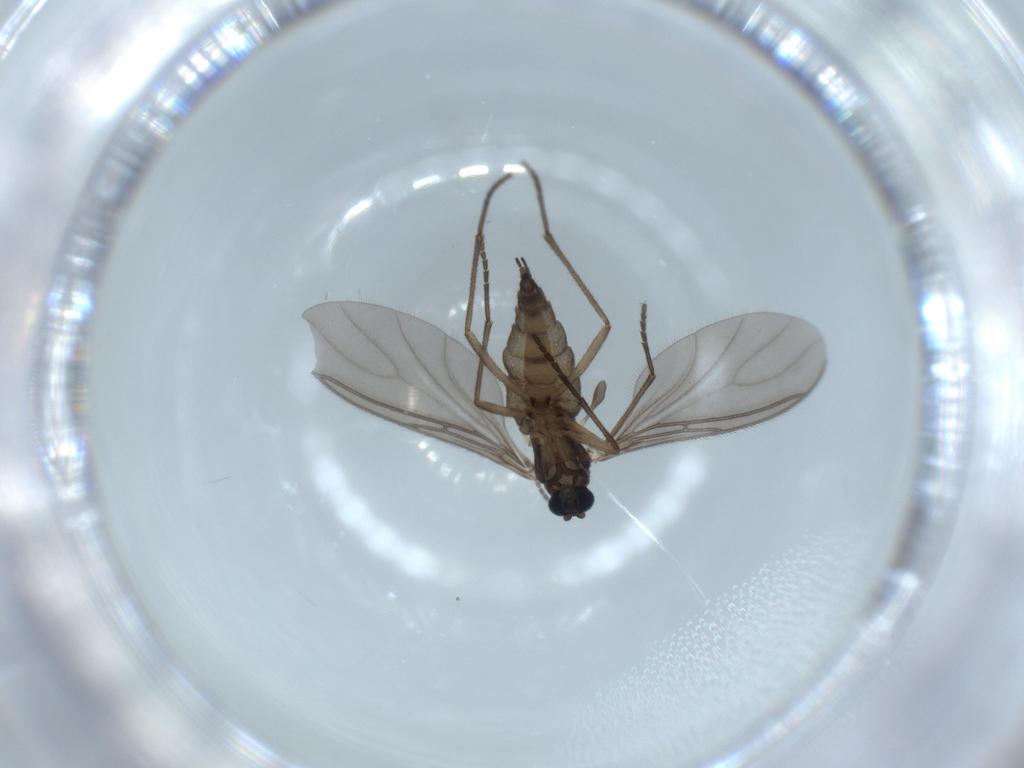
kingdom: Animalia
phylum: Arthropoda
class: Insecta
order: Diptera
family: Sciaridae
